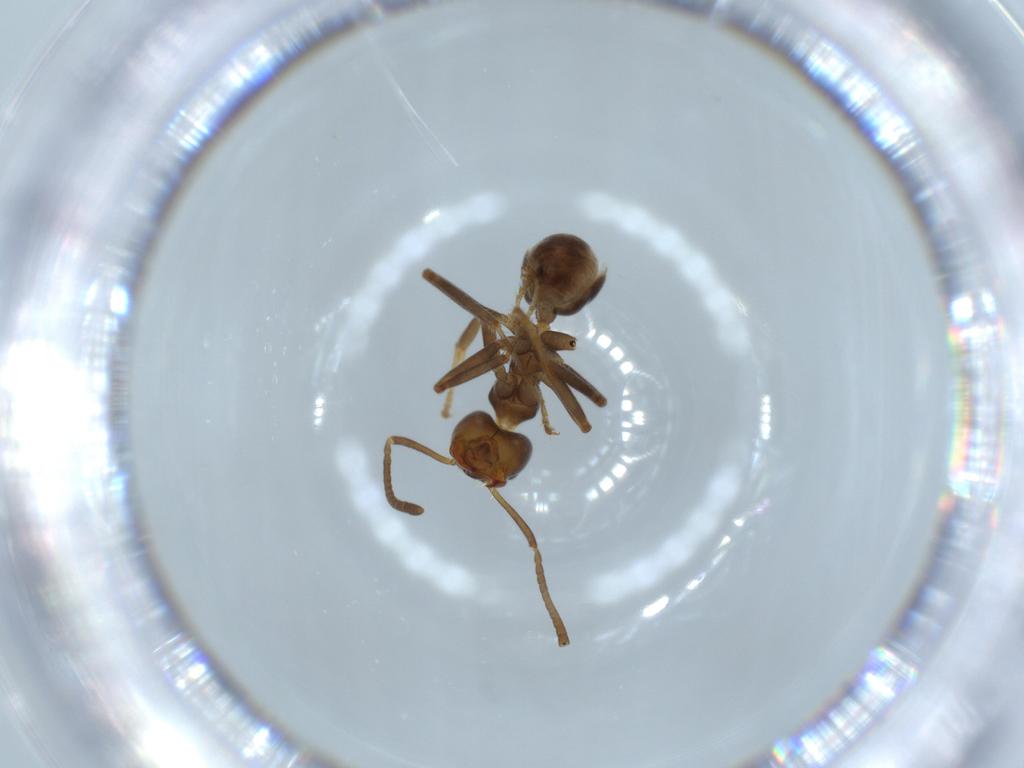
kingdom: Animalia
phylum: Arthropoda
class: Insecta
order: Hymenoptera
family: Formicidae
